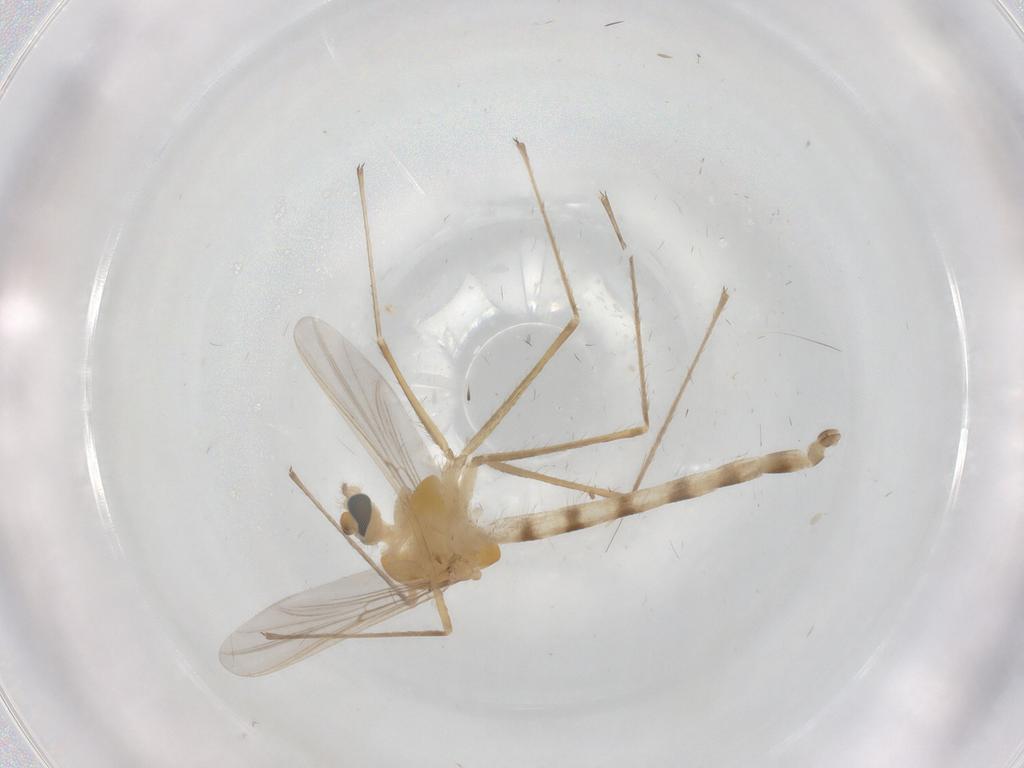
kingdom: Animalia
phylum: Arthropoda
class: Insecta
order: Diptera
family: Chironomidae
